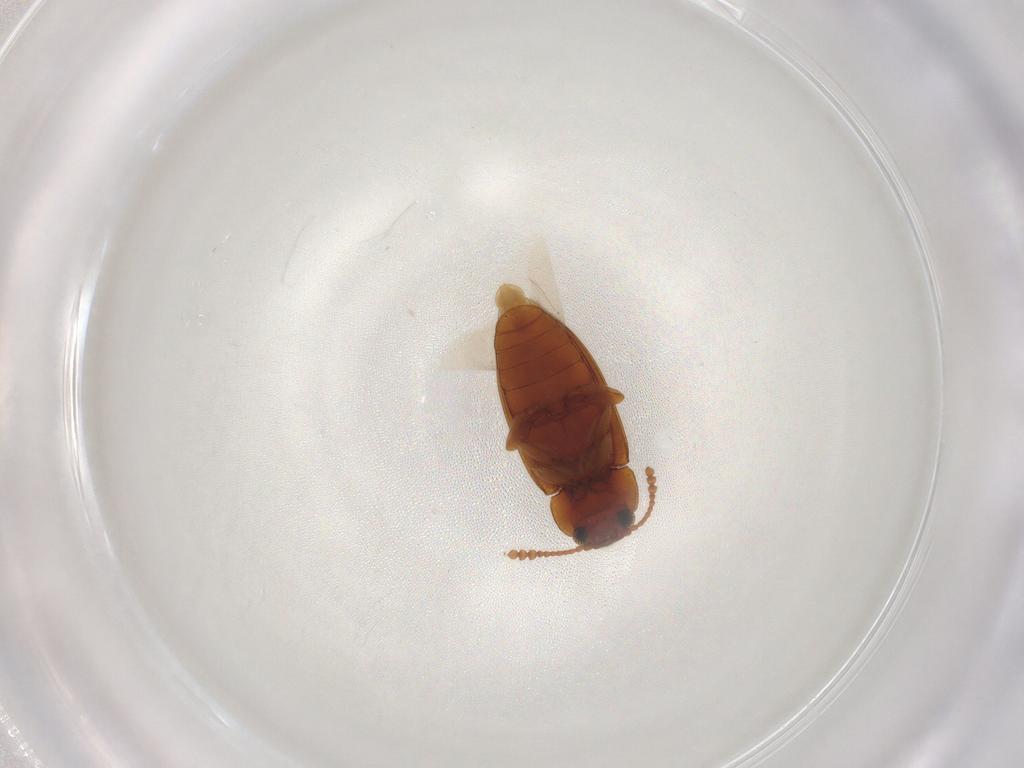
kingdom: Animalia
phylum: Arthropoda
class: Insecta
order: Coleoptera
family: Erotylidae
